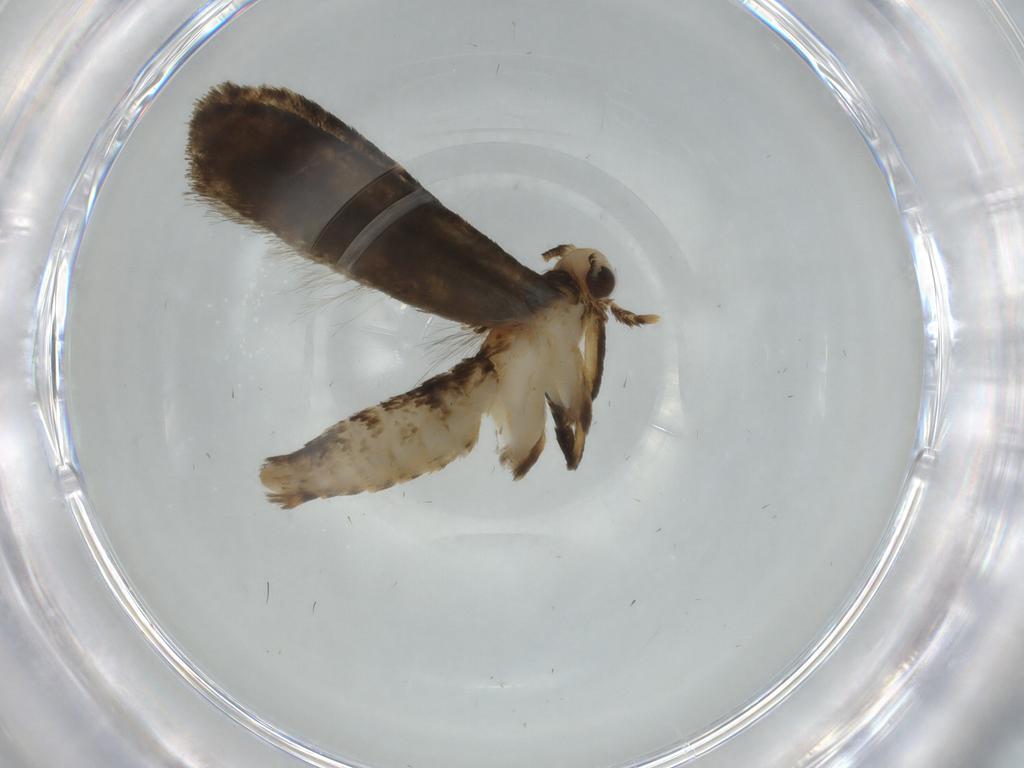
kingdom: Animalia
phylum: Arthropoda
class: Insecta
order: Lepidoptera
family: Tineidae
